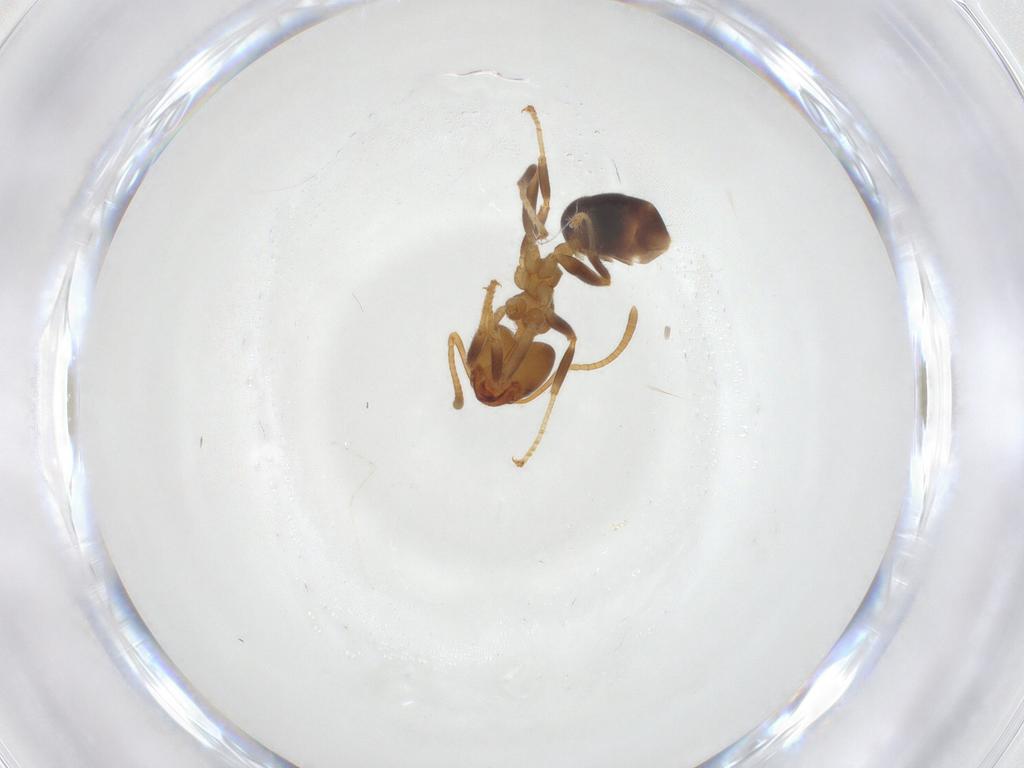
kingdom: Animalia
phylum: Arthropoda
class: Insecta
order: Hymenoptera
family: Formicidae
